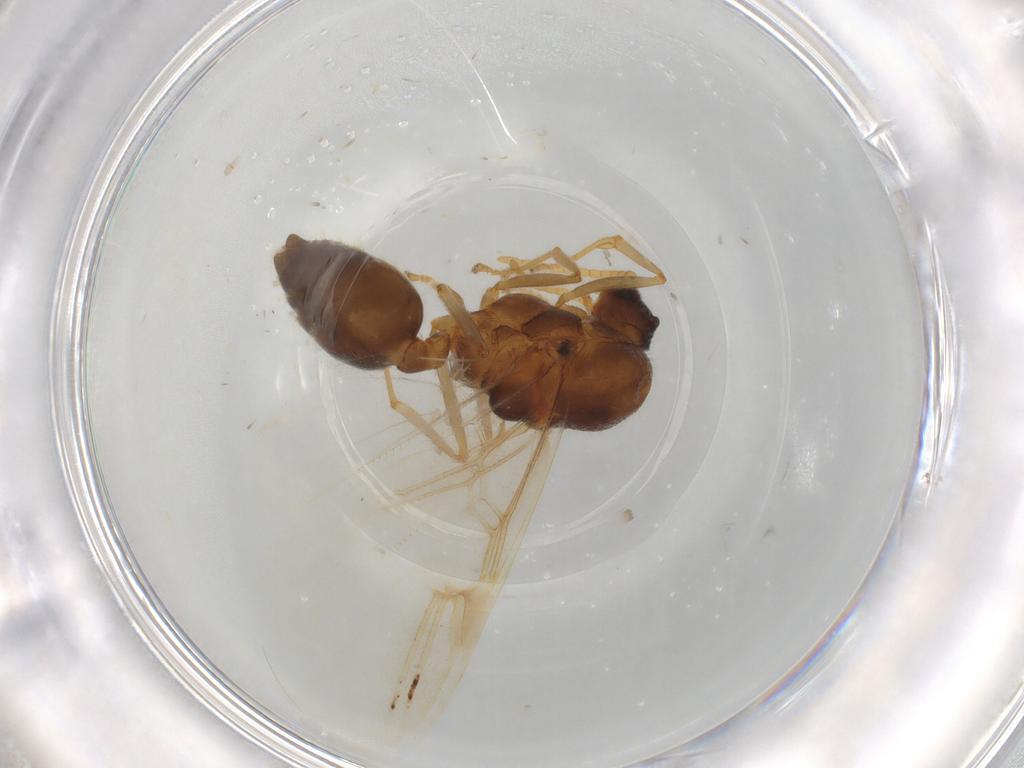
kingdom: Animalia
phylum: Arthropoda
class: Insecta
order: Hymenoptera
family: Formicidae
